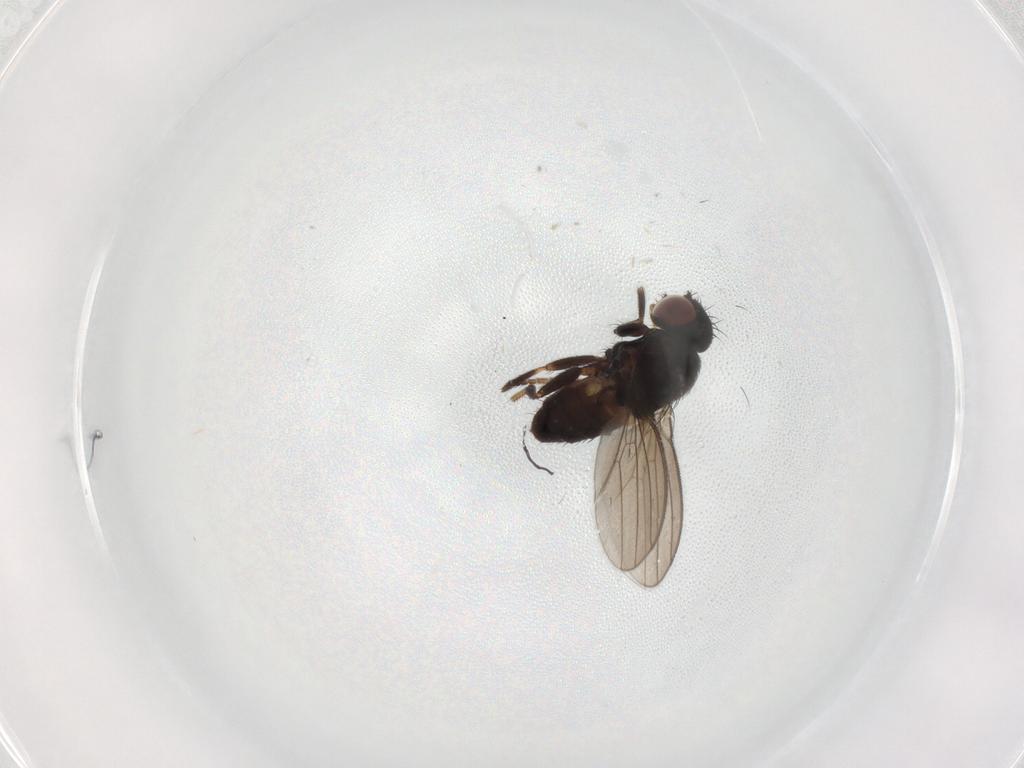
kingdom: Animalia
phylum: Arthropoda
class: Insecta
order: Diptera
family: Milichiidae
